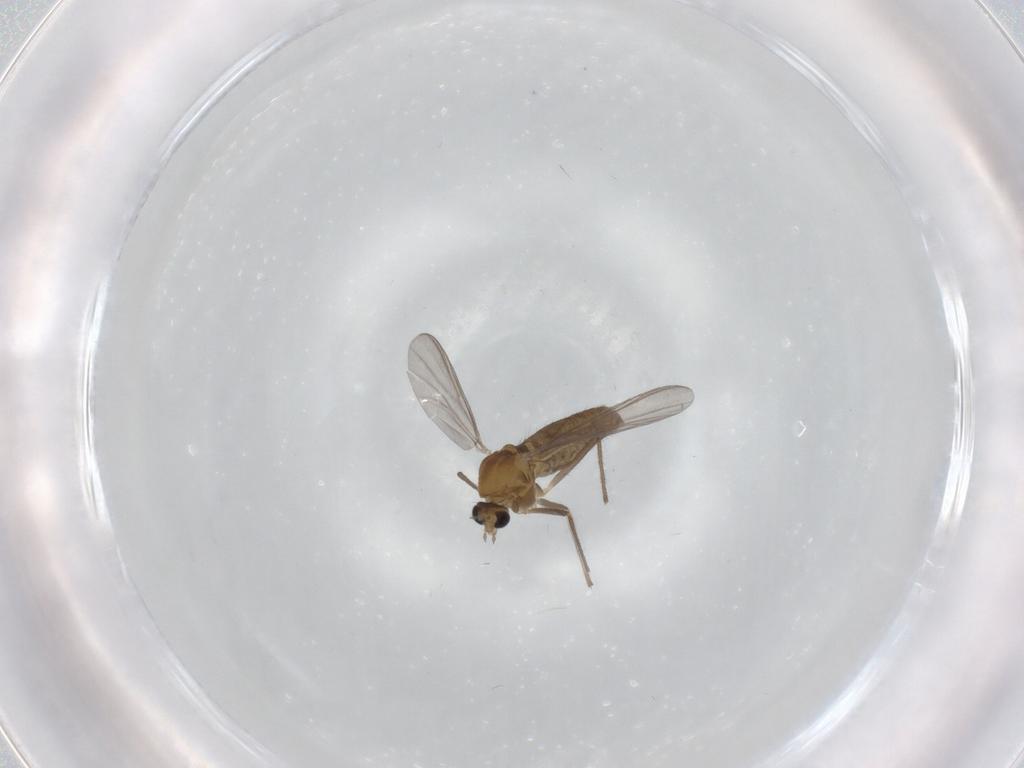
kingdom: Animalia
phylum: Arthropoda
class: Insecta
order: Diptera
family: Chironomidae
